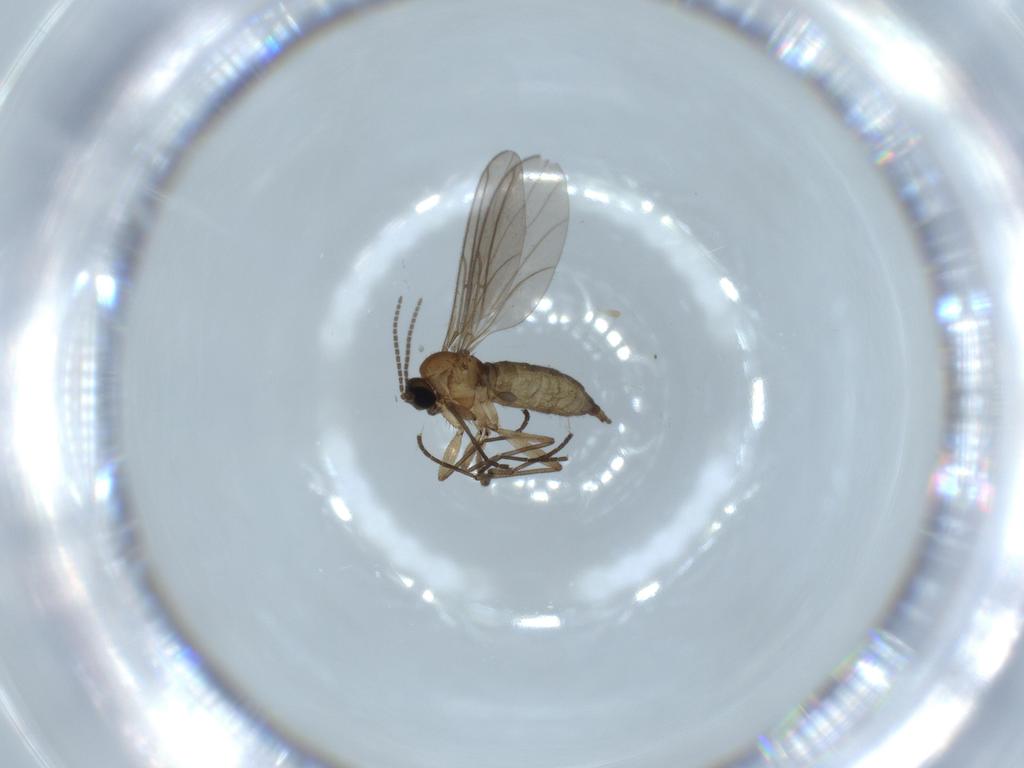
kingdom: Animalia
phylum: Arthropoda
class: Insecta
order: Diptera
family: Sciaridae
